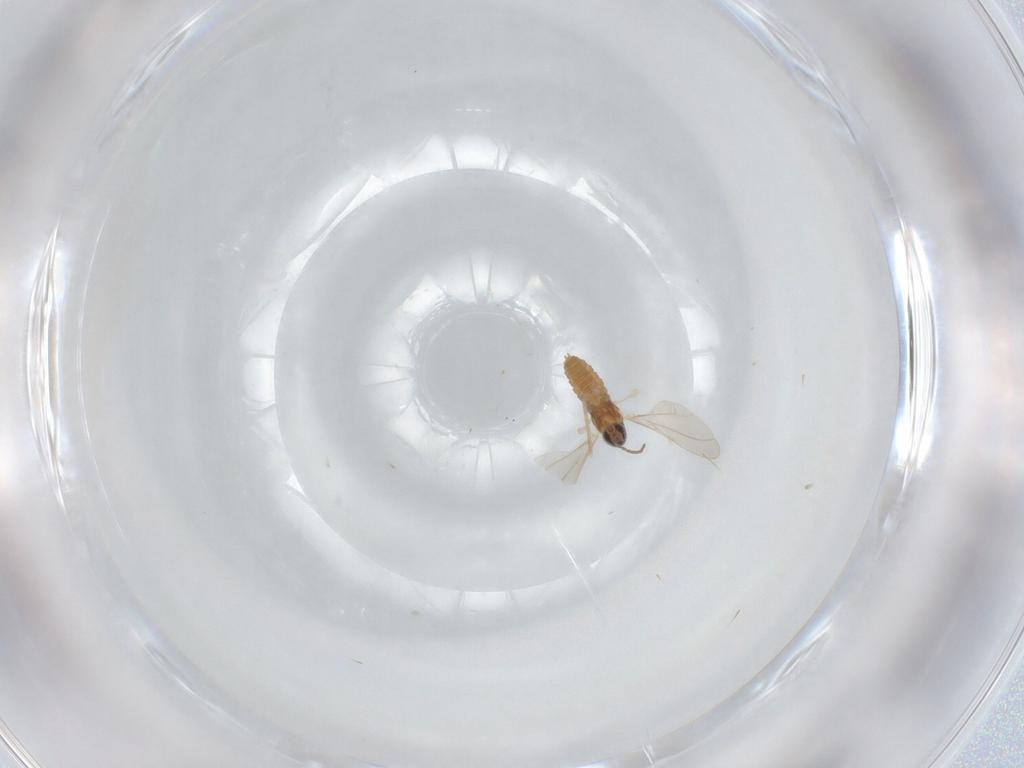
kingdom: Animalia
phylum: Arthropoda
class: Insecta
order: Diptera
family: Cecidomyiidae
